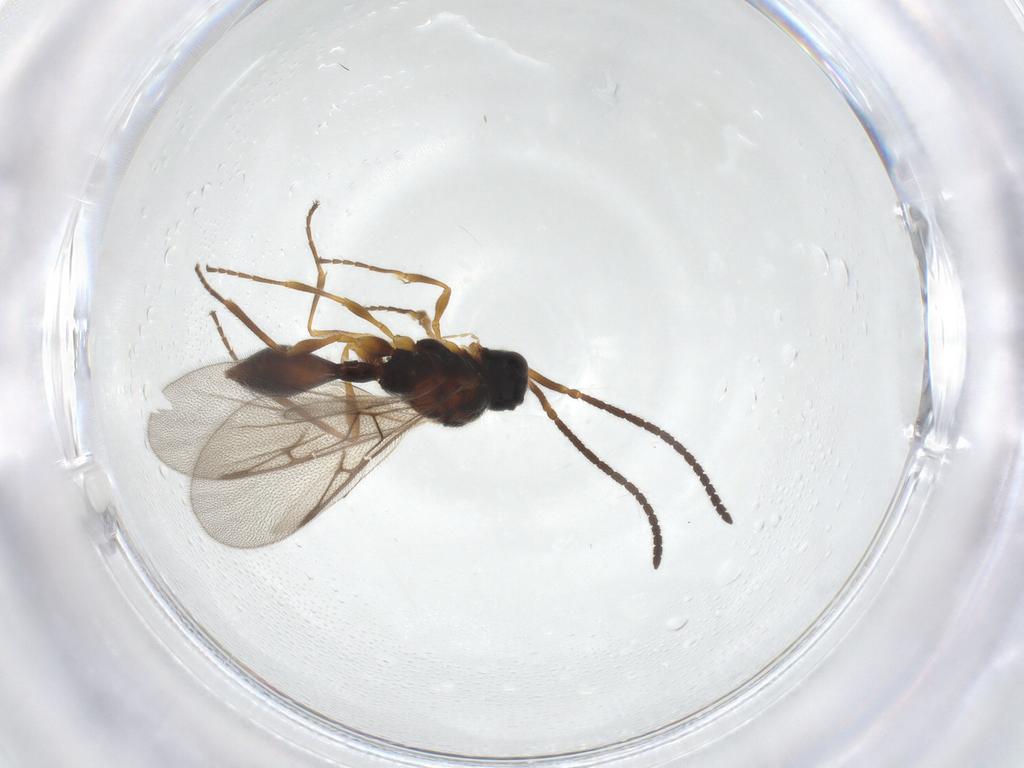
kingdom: Animalia
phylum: Arthropoda
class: Insecta
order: Hymenoptera
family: Diapriidae
